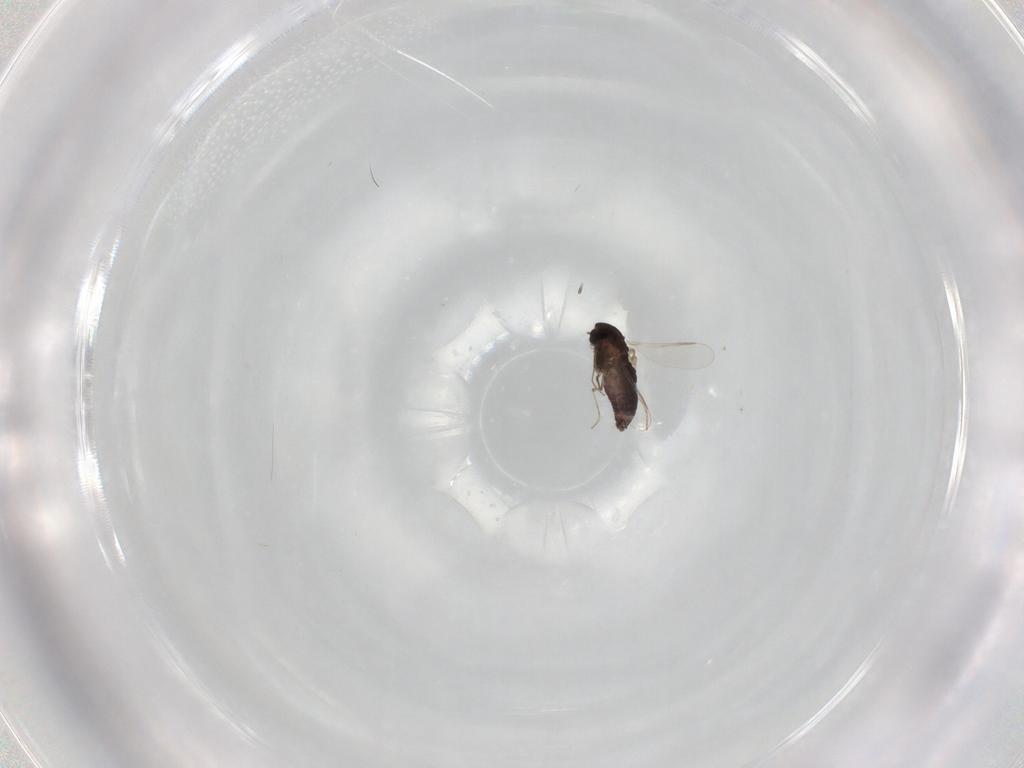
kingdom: Animalia
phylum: Arthropoda
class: Insecta
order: Diptera
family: Chironomidae
